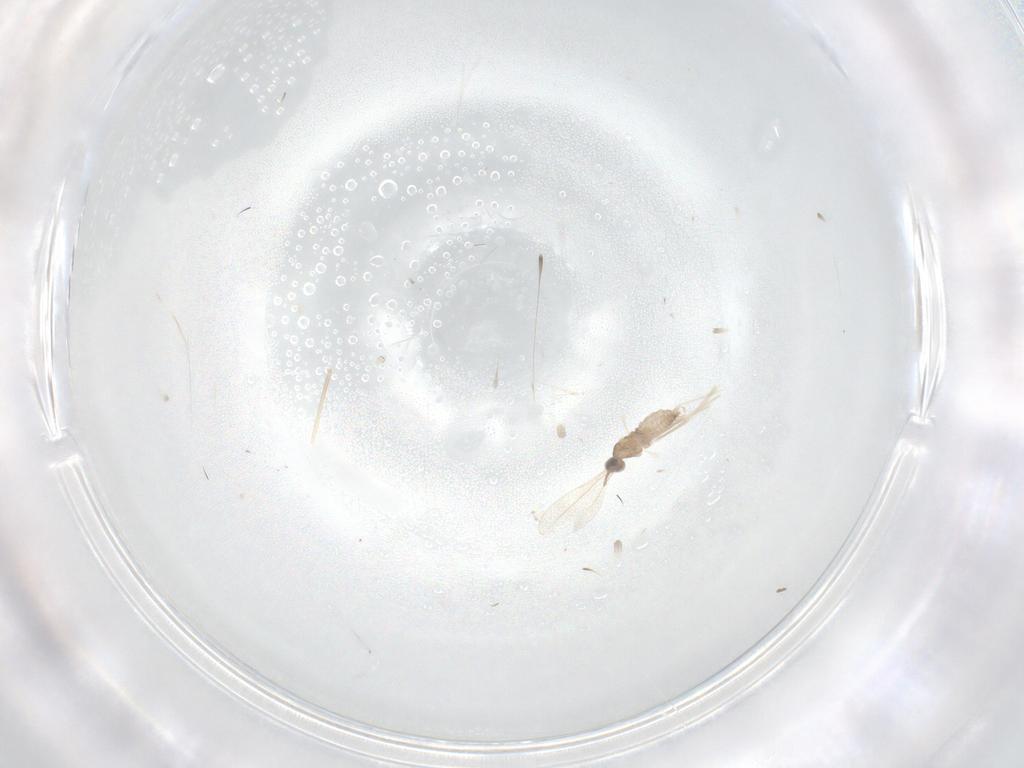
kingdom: Animalia
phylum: Arthropoda
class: Insecta
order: Diptera
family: Cecidomyiidae
